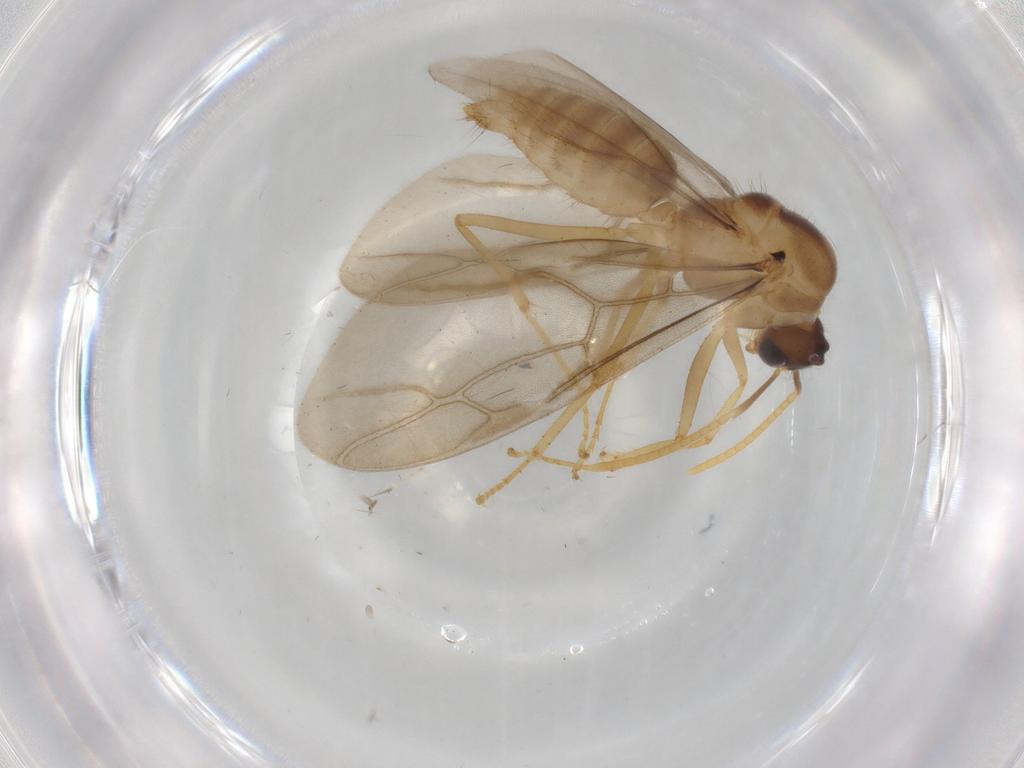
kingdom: Animalia
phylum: Arthropoda
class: Insecta
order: Hymenoptera
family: Formicidae
